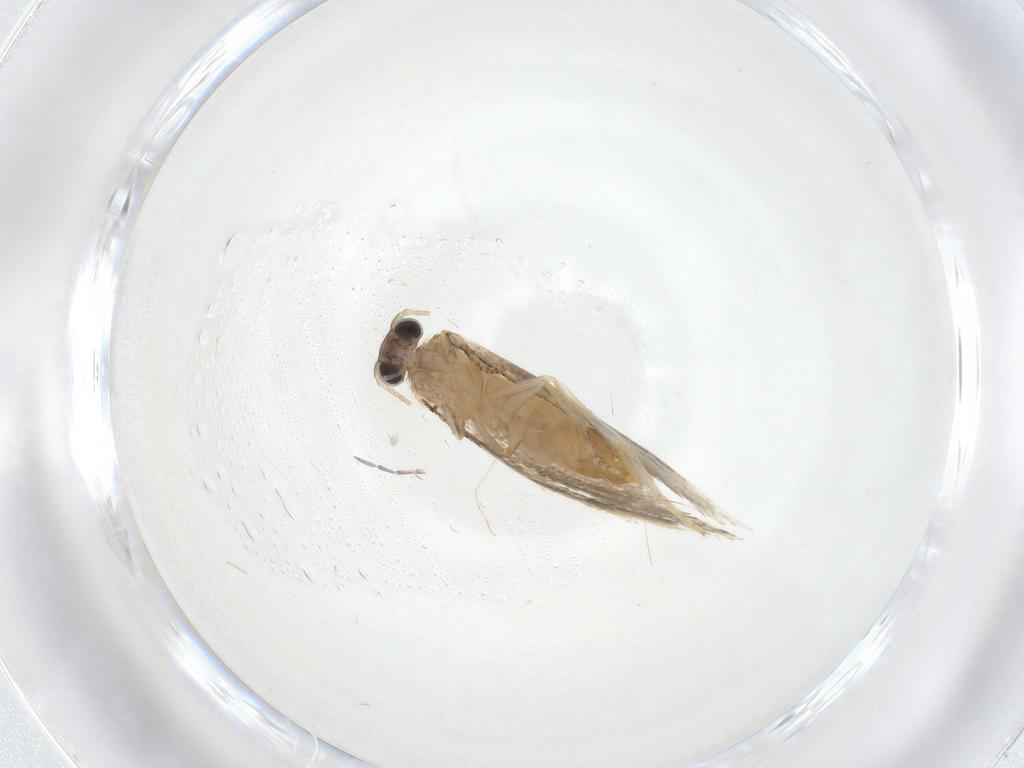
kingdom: Animalia
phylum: Arthropoda
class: Insecta
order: Lepidoptera
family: Tineidae
